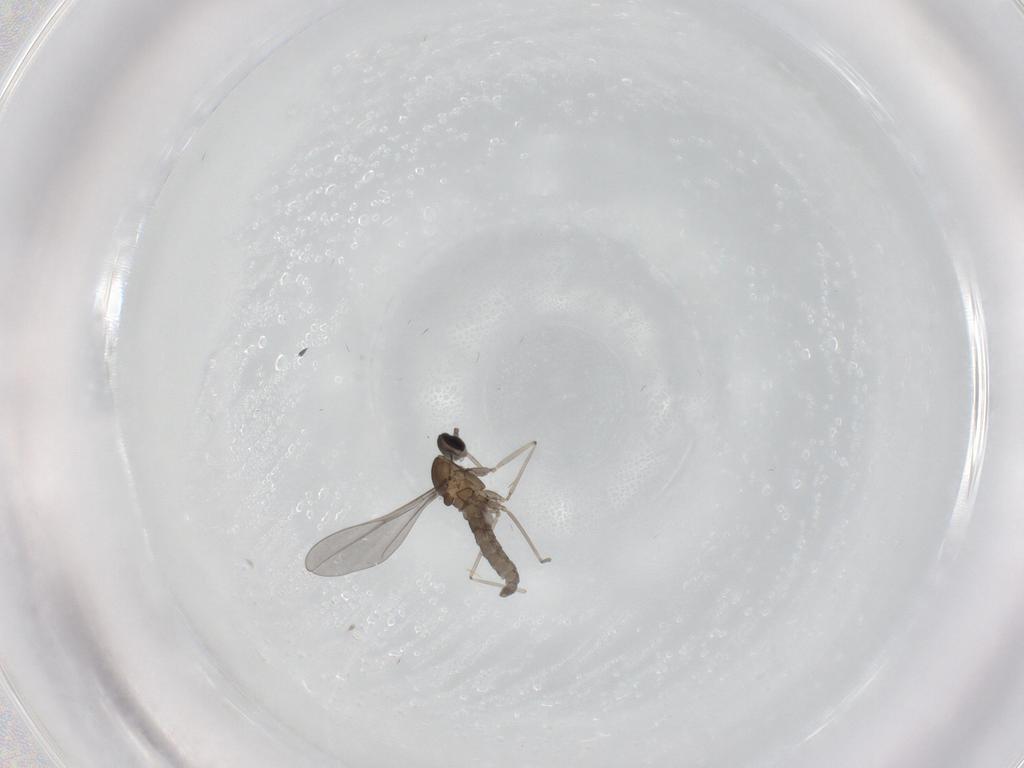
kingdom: Animalia
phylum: Arthropoda
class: Insecta
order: Diptera
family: Cecidomyiidae
